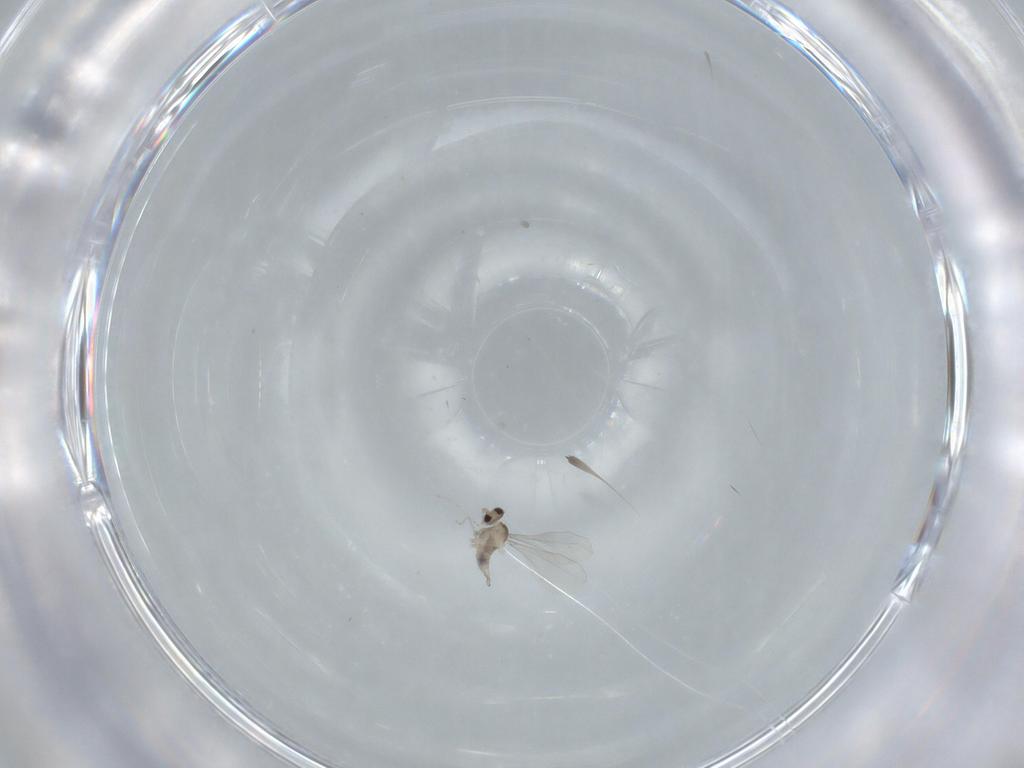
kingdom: Animalia
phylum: Arthropoda
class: Insecta
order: Diptera
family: Cecidomyiidae
